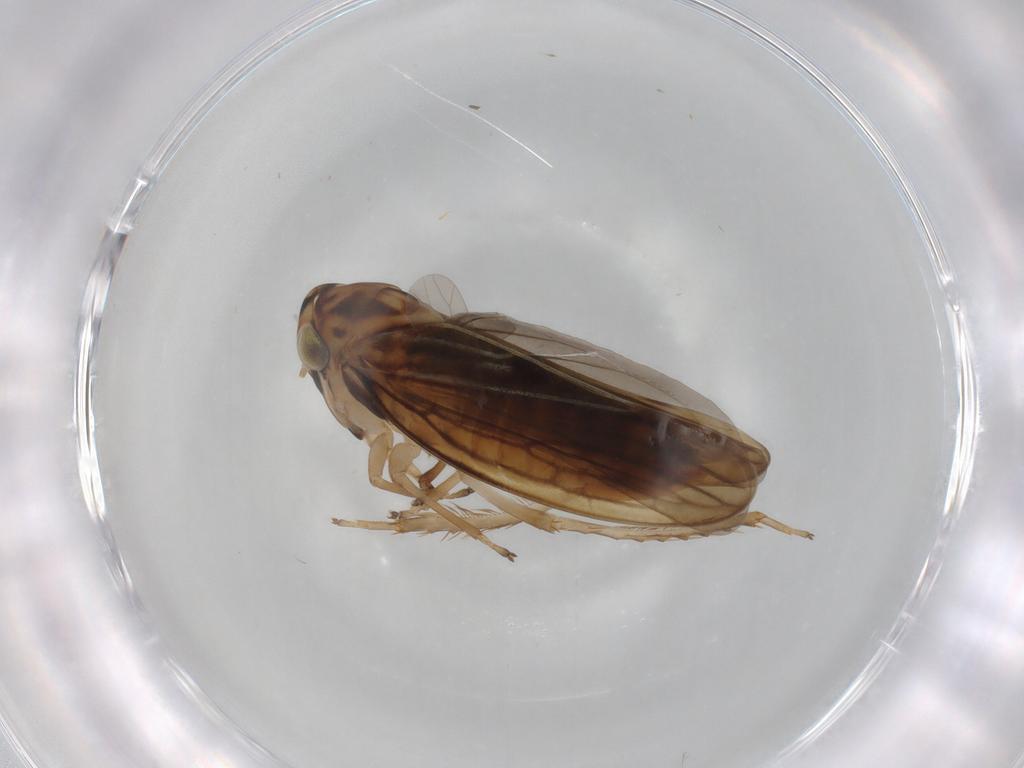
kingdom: Animalia
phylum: Arthropoda
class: Insecta
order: Hemiptera
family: Cicadellidae
